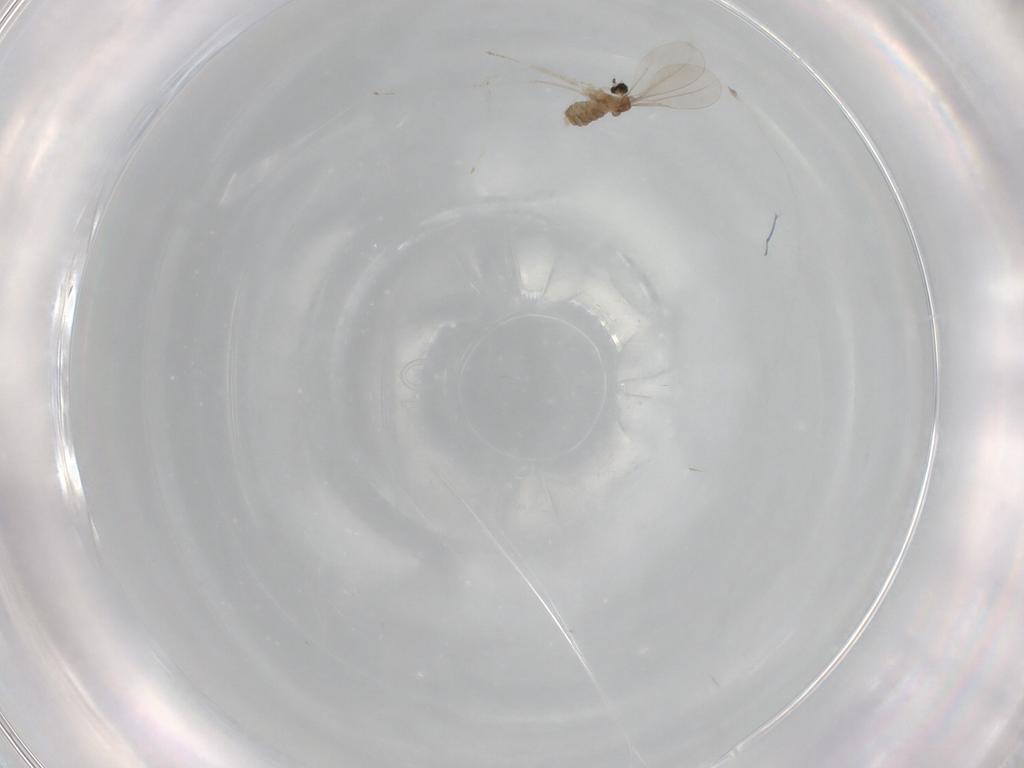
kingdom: Animalia
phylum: Arthropoda
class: Insecta
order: Diptera
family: Cecidomyiidae
